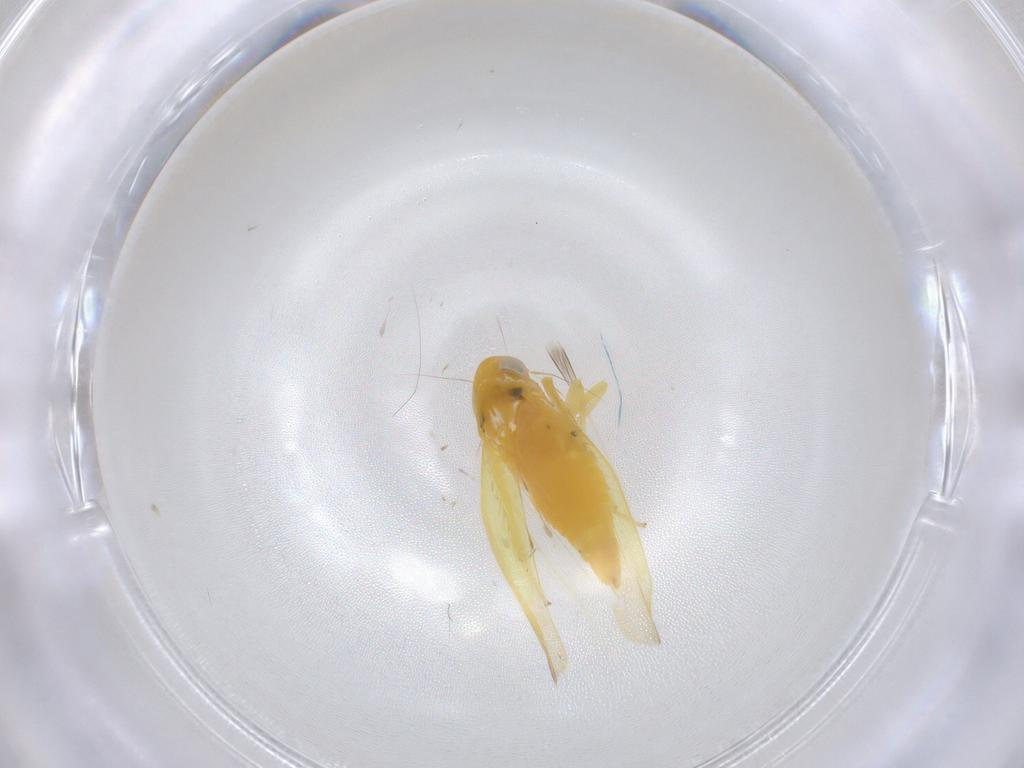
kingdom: Animalia
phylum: Arthropoda
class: Insecta
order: Hemiptera
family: Cicadellidae
